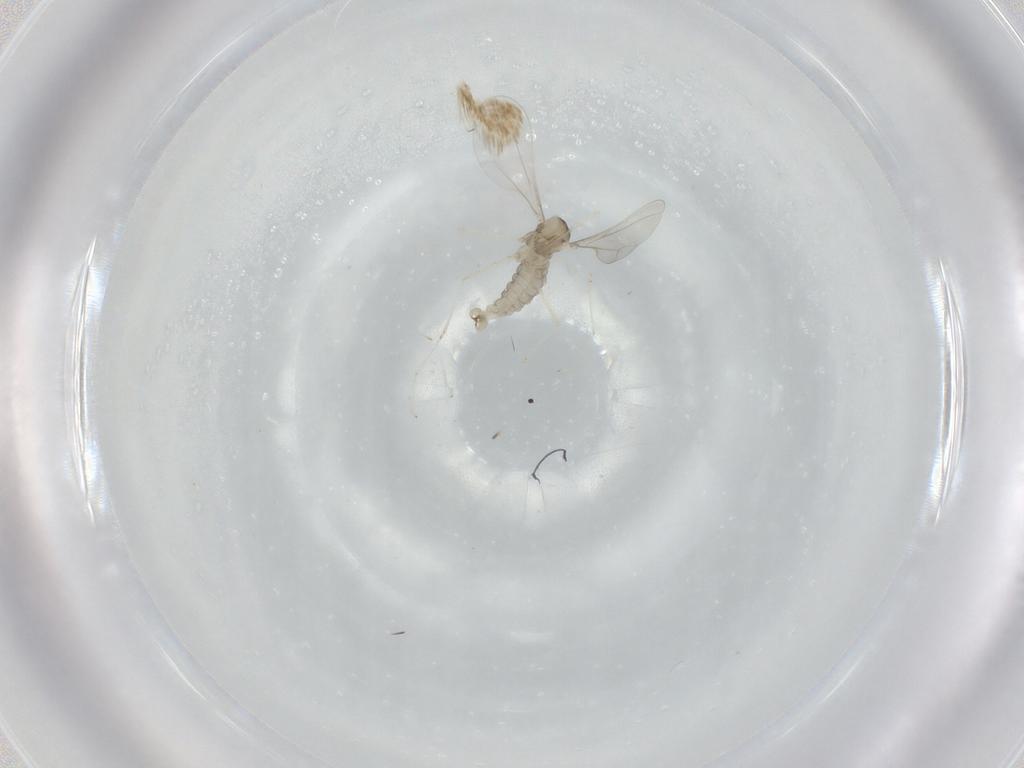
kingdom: Animalia
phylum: Arthropoda
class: Insecta
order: Diptera
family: Cecidomyiidae
